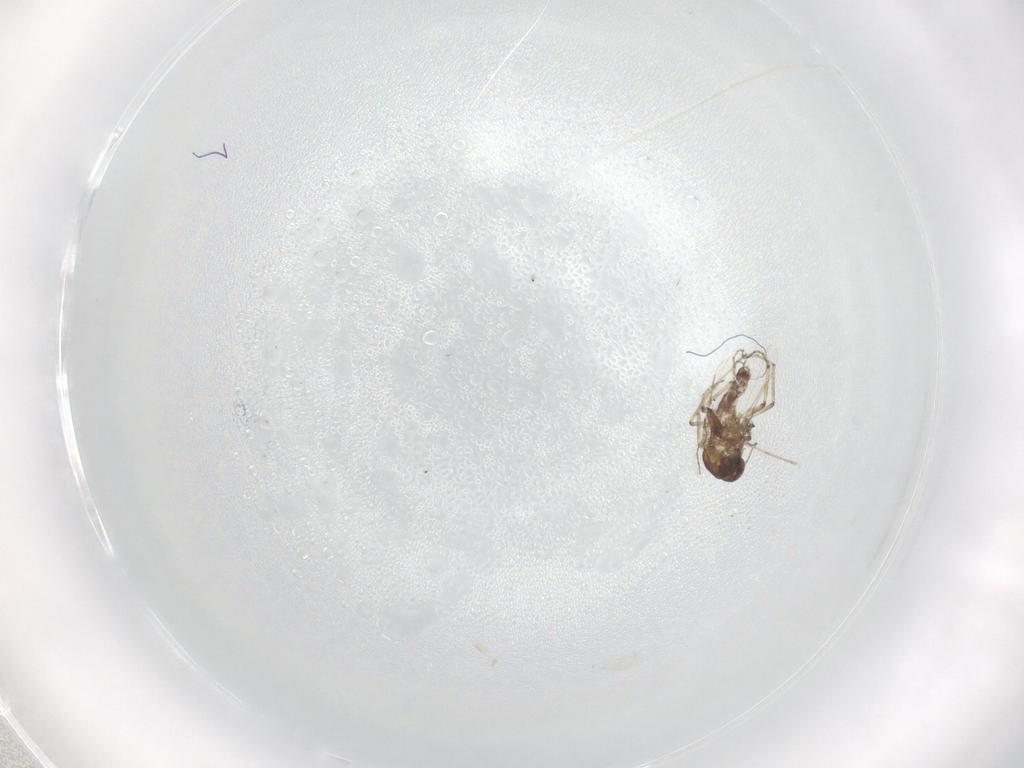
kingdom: Animalia
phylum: Arthropoda
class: Insecta
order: Diptera
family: Cecidomyiidae
